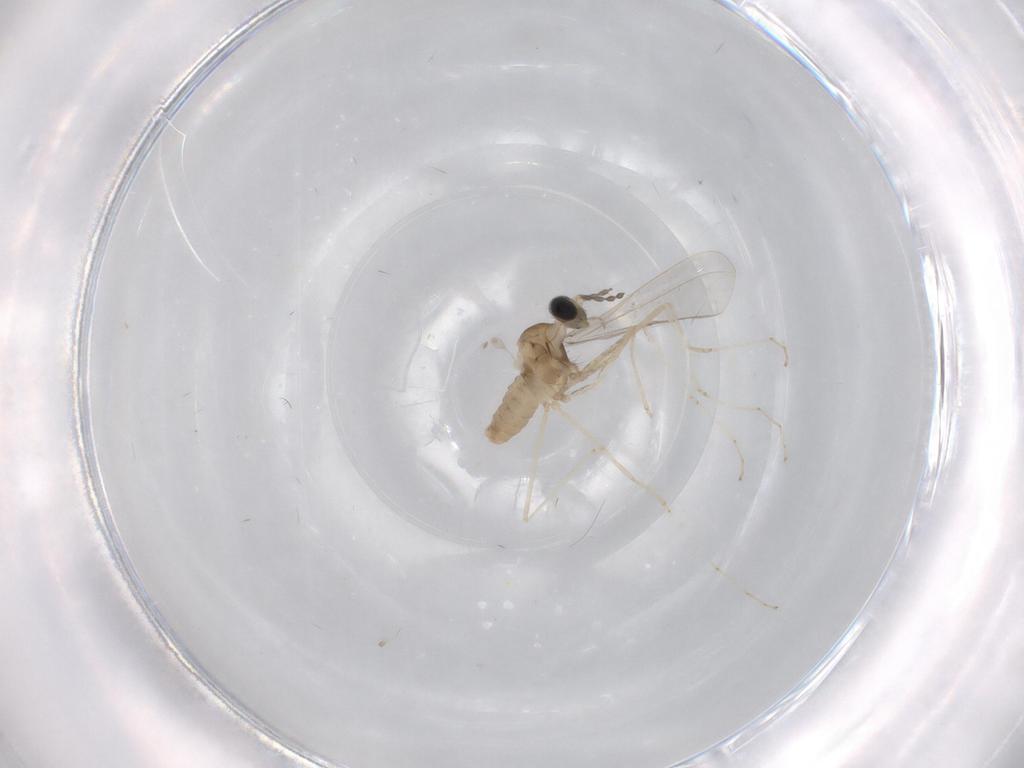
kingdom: Animalia
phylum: Arthropoda
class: Insecta
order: Diptera
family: Cecidomyiidae
